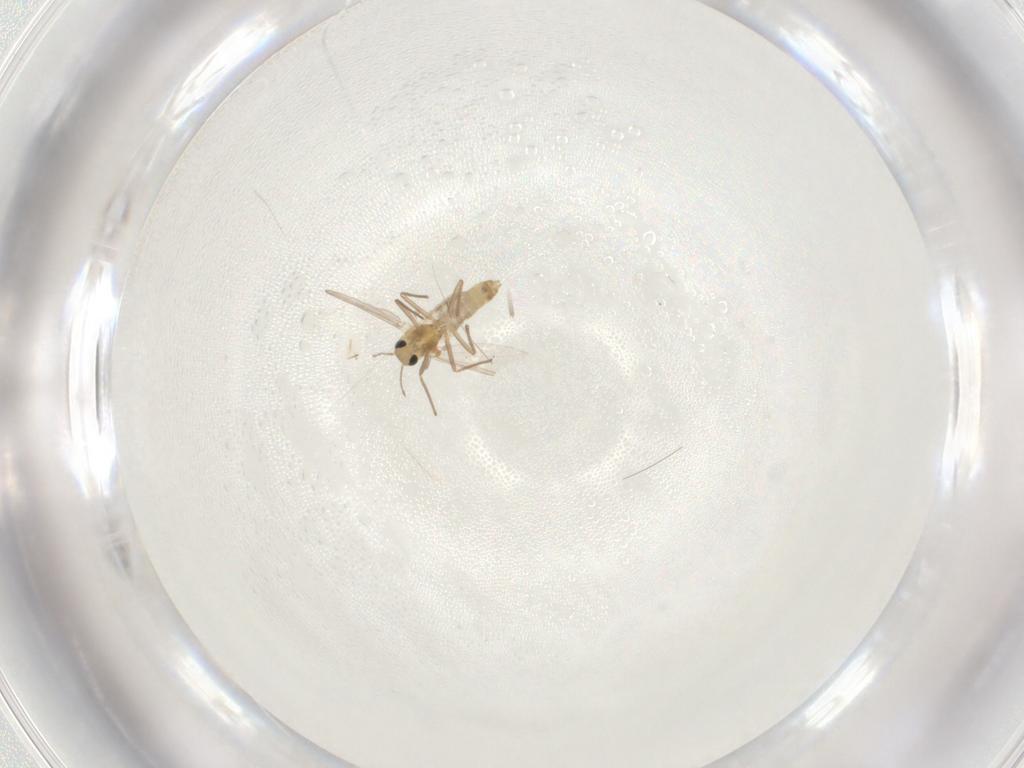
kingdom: Animalia
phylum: Arthropoda
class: Insecta
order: Diptera
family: Chironomidae
